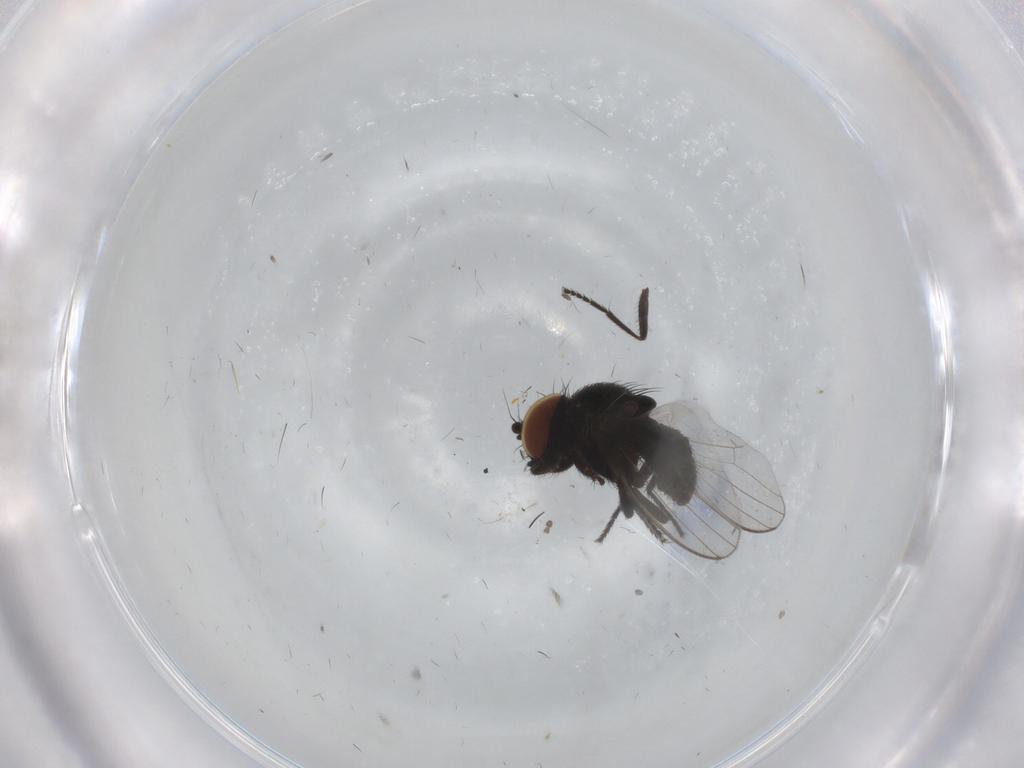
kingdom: Animalia
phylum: Arthropoda
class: Insecta
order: Diptera
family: Milichiidae
